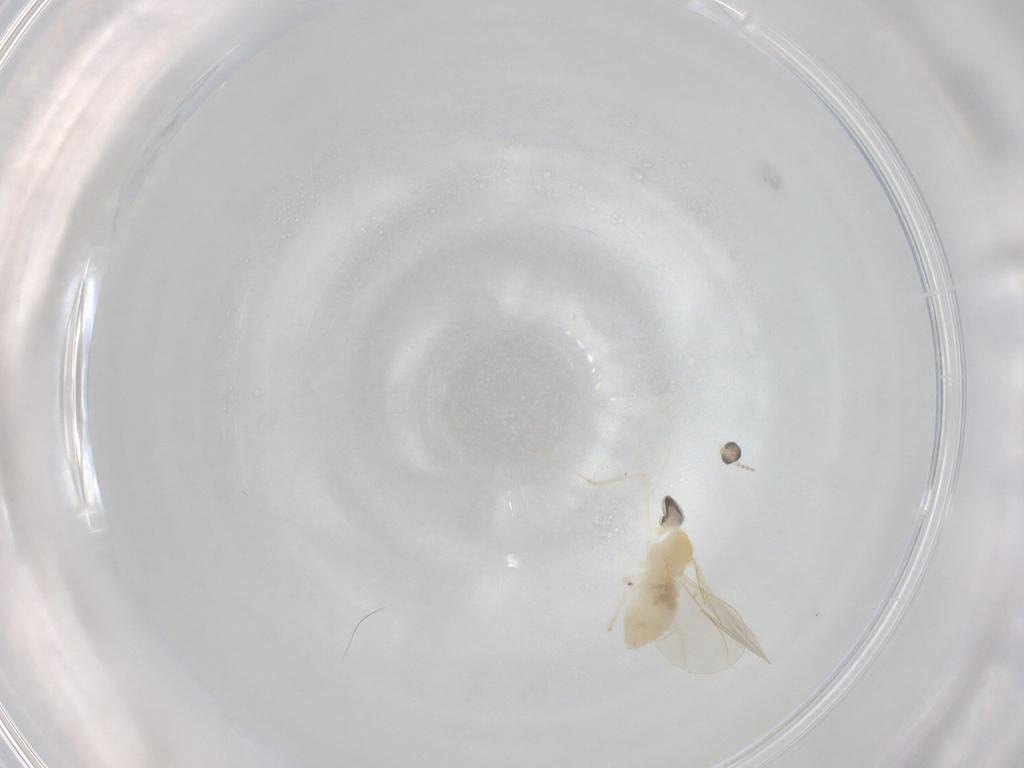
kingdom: Animalia
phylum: Arthropoda
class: Insecta
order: Diptera
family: Cecidomyiidae
